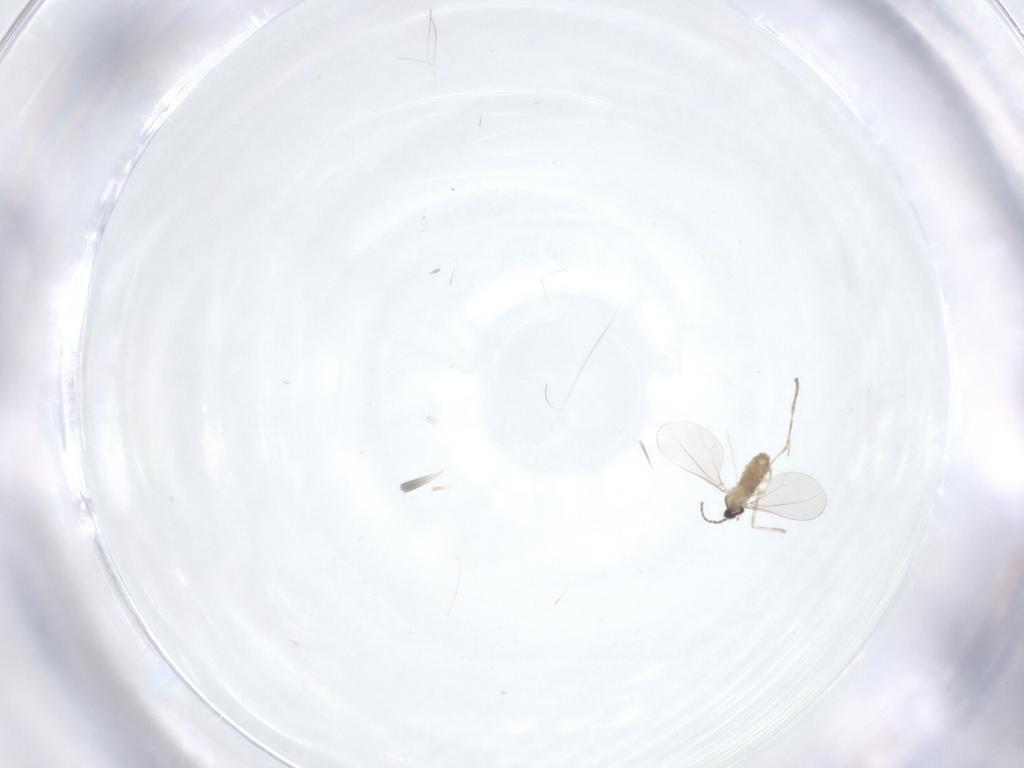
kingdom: Animalia
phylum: Arthropoda
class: Insecta
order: Diptera
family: Cecidomyiidae
